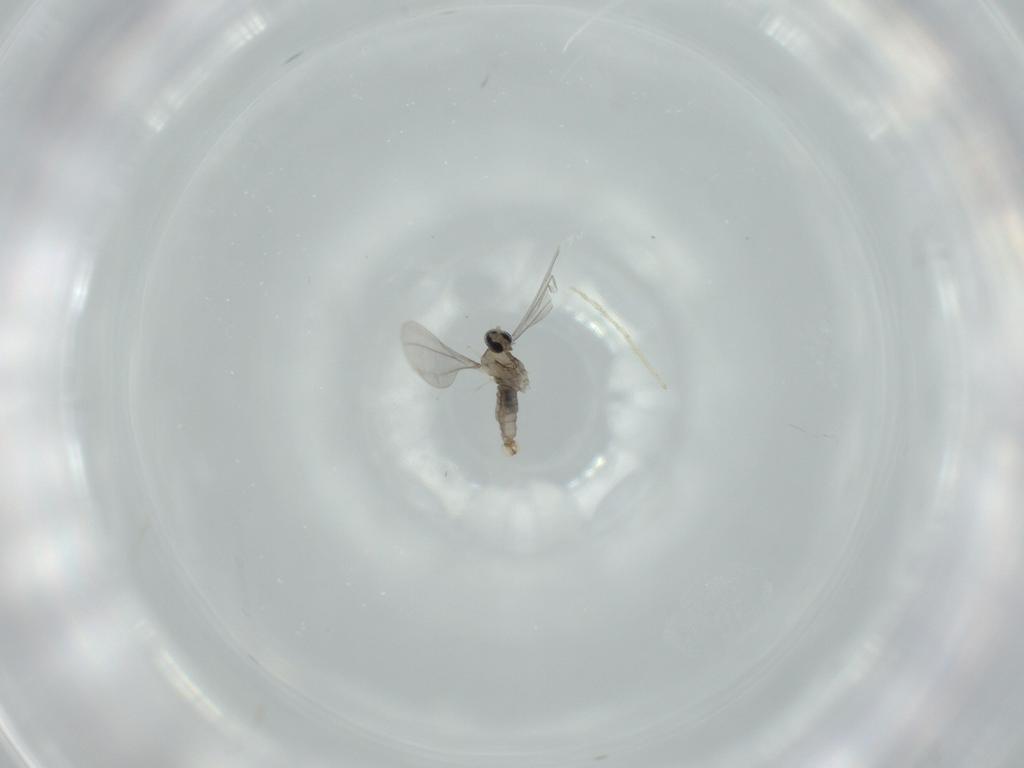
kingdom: Animalia
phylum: Arthropoda
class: Insecta
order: Diptera
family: Cecidomyiidae
